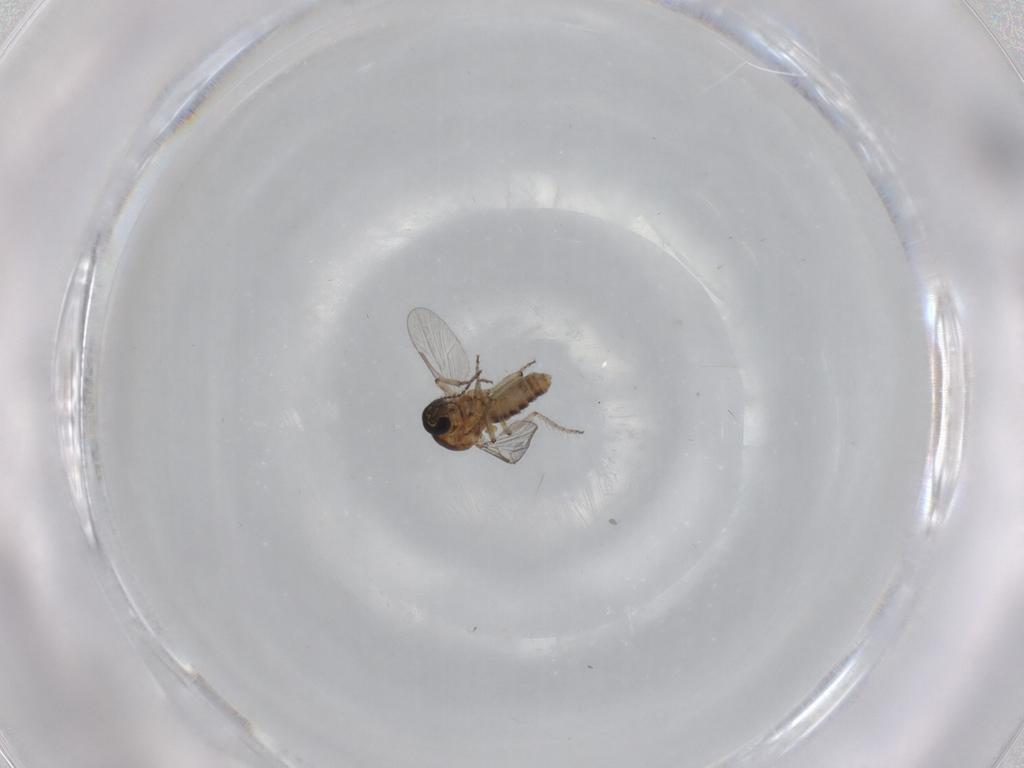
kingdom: Animalia
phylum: Arthropoda
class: Insecta
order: Diptera
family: Ceratopogonidae
